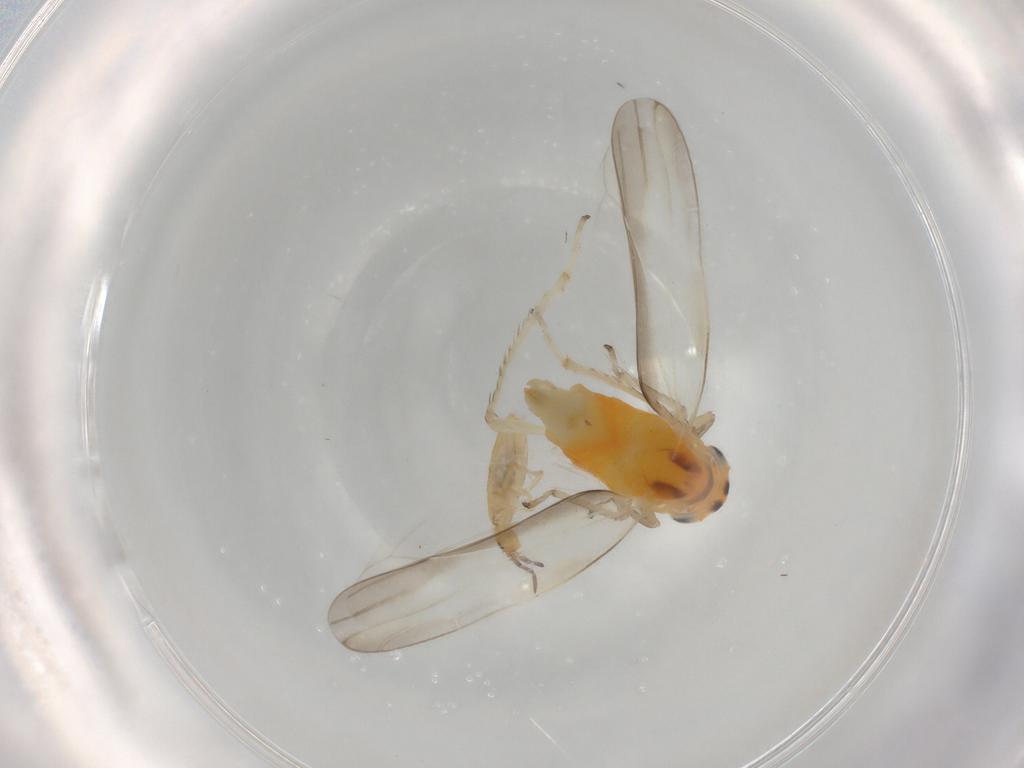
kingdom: Animalia
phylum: Arthropoda
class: Insecta
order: Hemiptera
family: Cicadellidae
